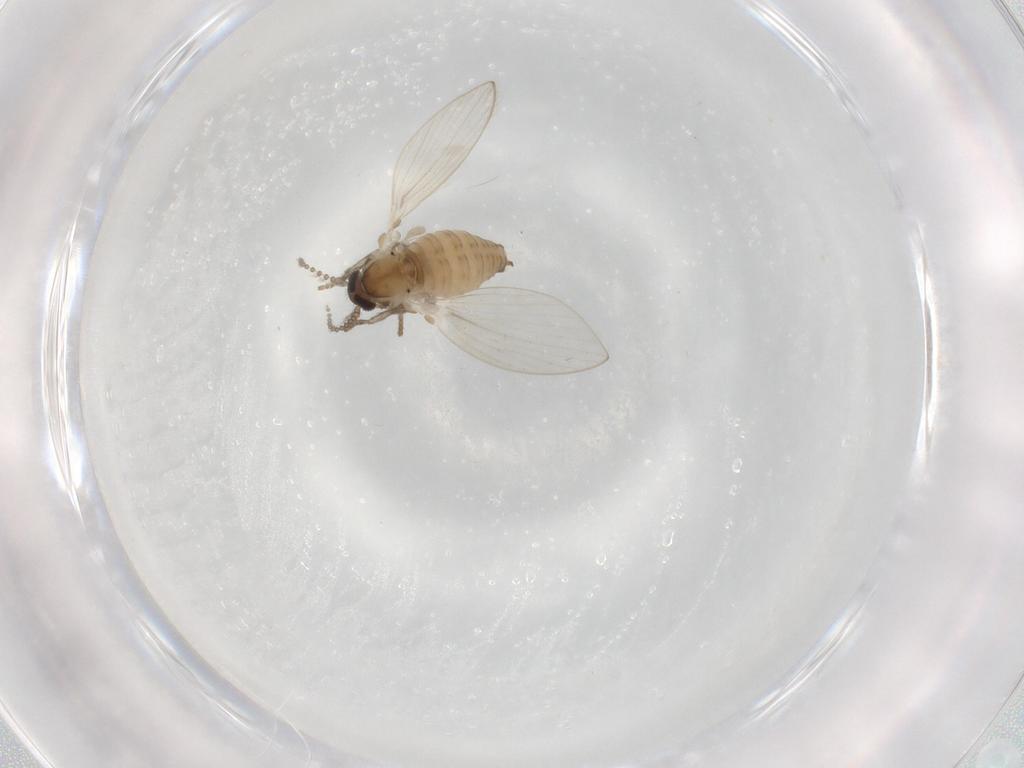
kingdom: Animalia
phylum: Arthropoda
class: Insecta
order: Diptera
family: Psychodidae
